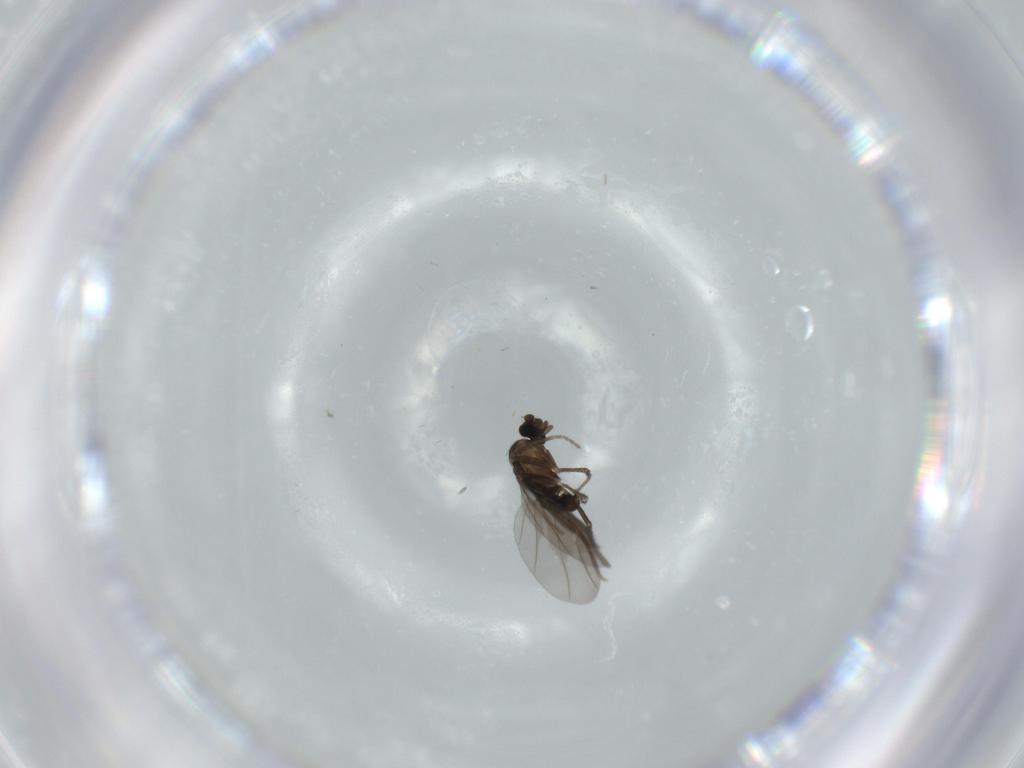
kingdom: Animalia
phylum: Arthropoda
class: Insecta
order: Diptera
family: Phoridae
